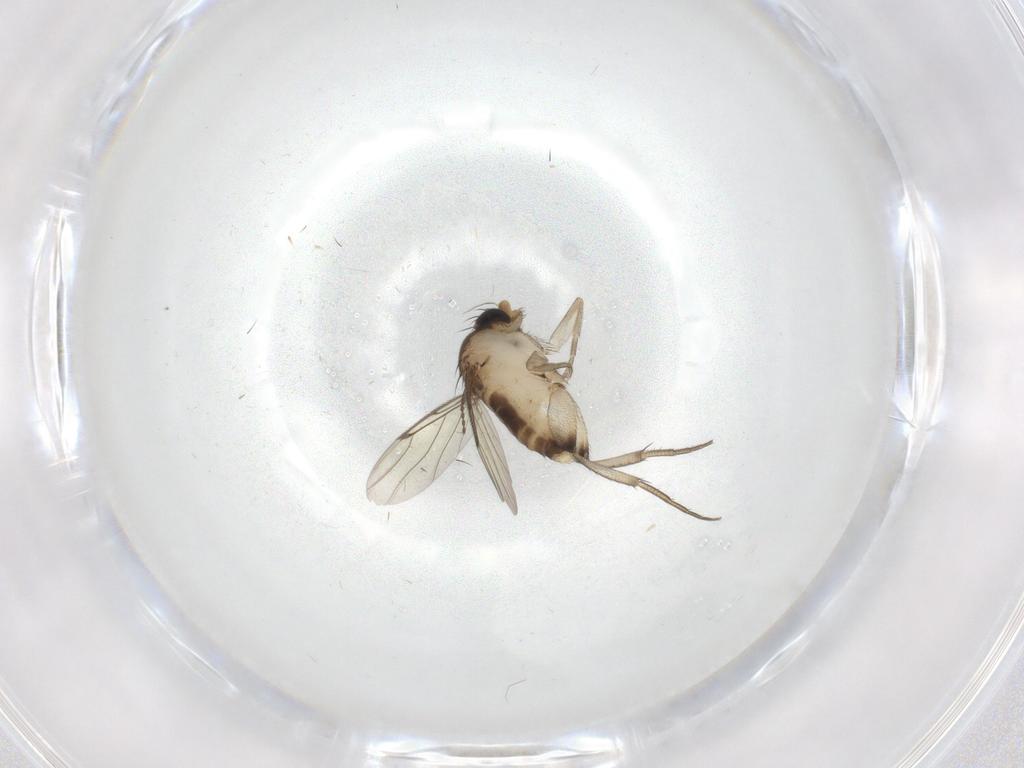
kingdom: Animalia
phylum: Arthropoda
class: Insecta
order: Diptera
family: Phoridae
